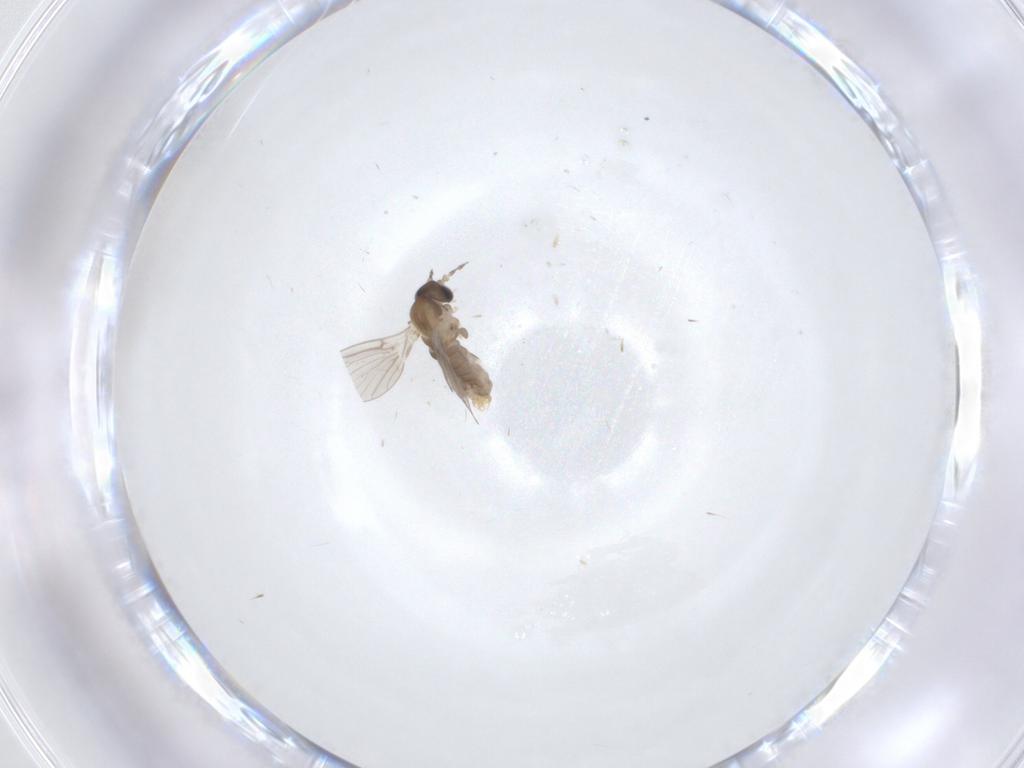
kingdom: Animalia
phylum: Arthropoda
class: Insecta
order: Diptera
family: Psychodidae
